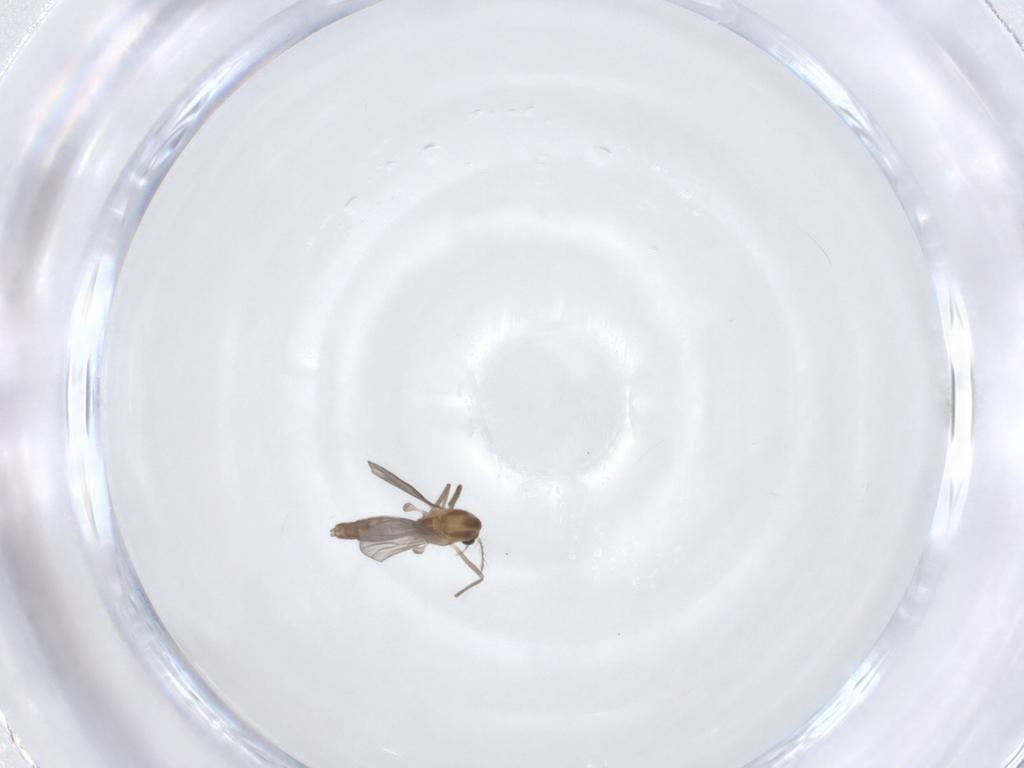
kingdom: Animalia
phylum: Arthropoda
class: Insecta
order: Diptera
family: Chironomidae
